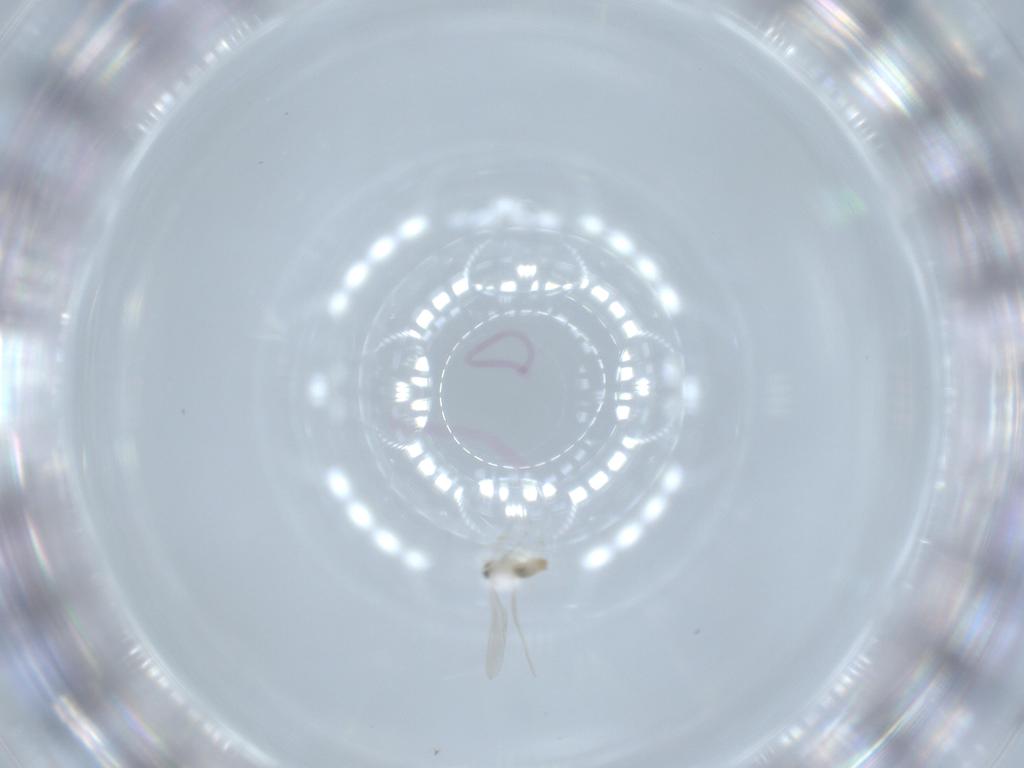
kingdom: Animalia
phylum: Arthropoda
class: Insecta
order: Diptera
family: Cecidomyiidae
